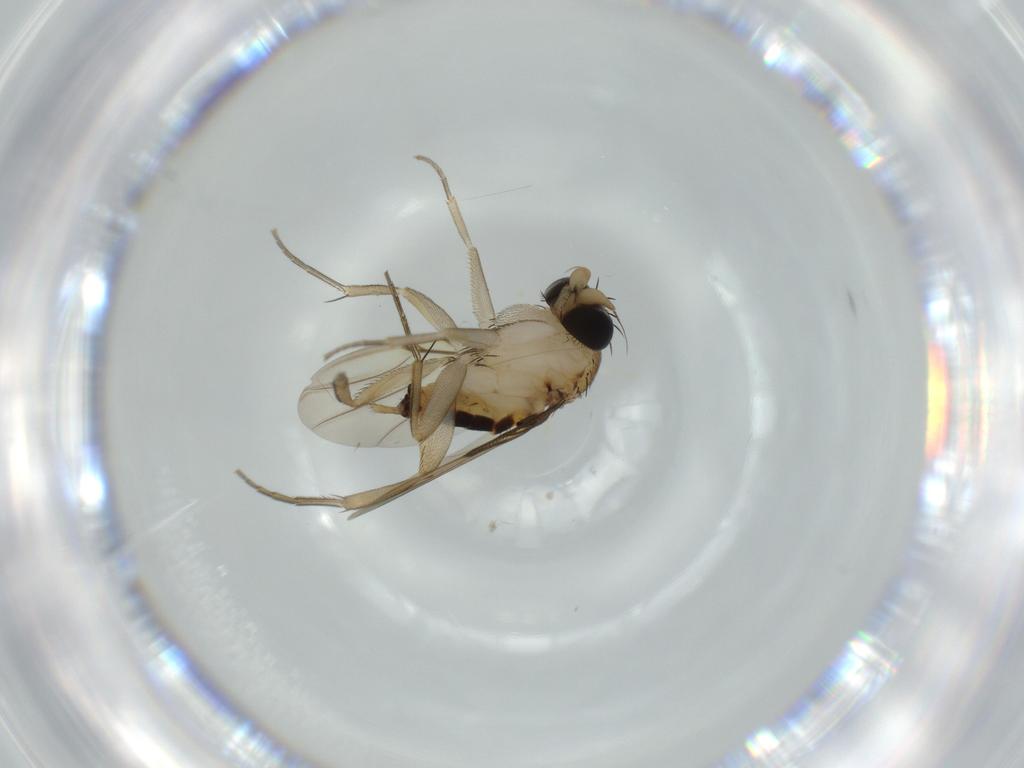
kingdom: Animalia
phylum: Arthropoda
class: Insecta
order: Diptera
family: Phoridae
